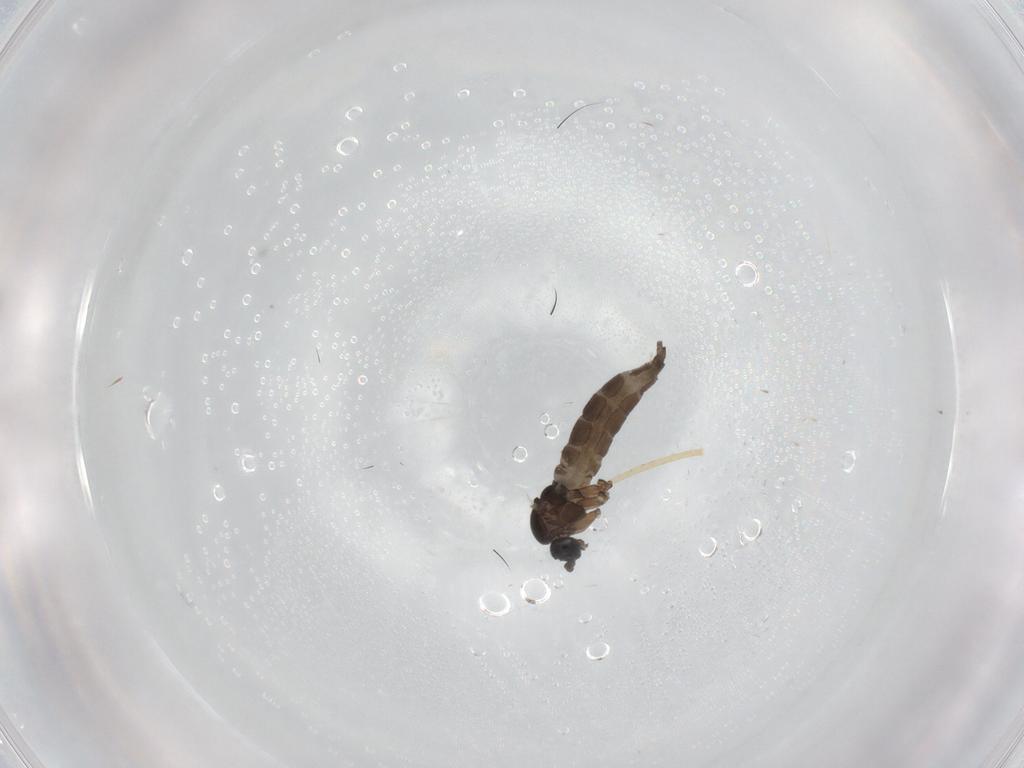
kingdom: Animalia
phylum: Arthropoda
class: Insecta
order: Diptera
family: Sciaridae
